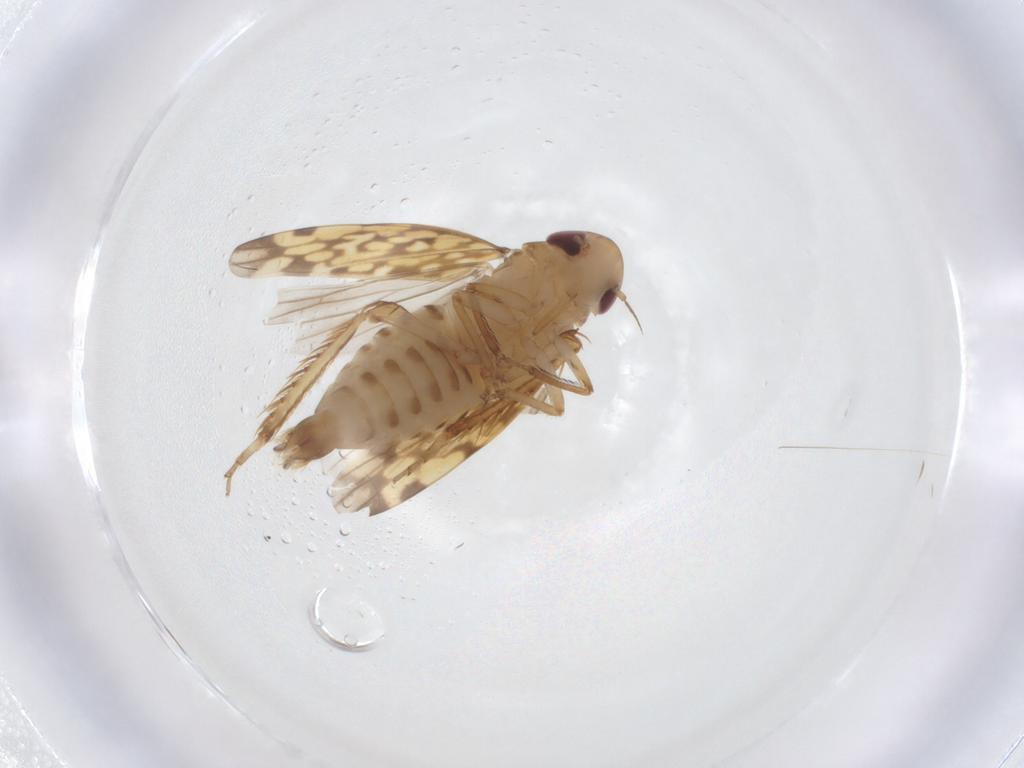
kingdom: Animalia
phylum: Arthropoda
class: Insecta
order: Hemiptera
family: Cicadellidae
